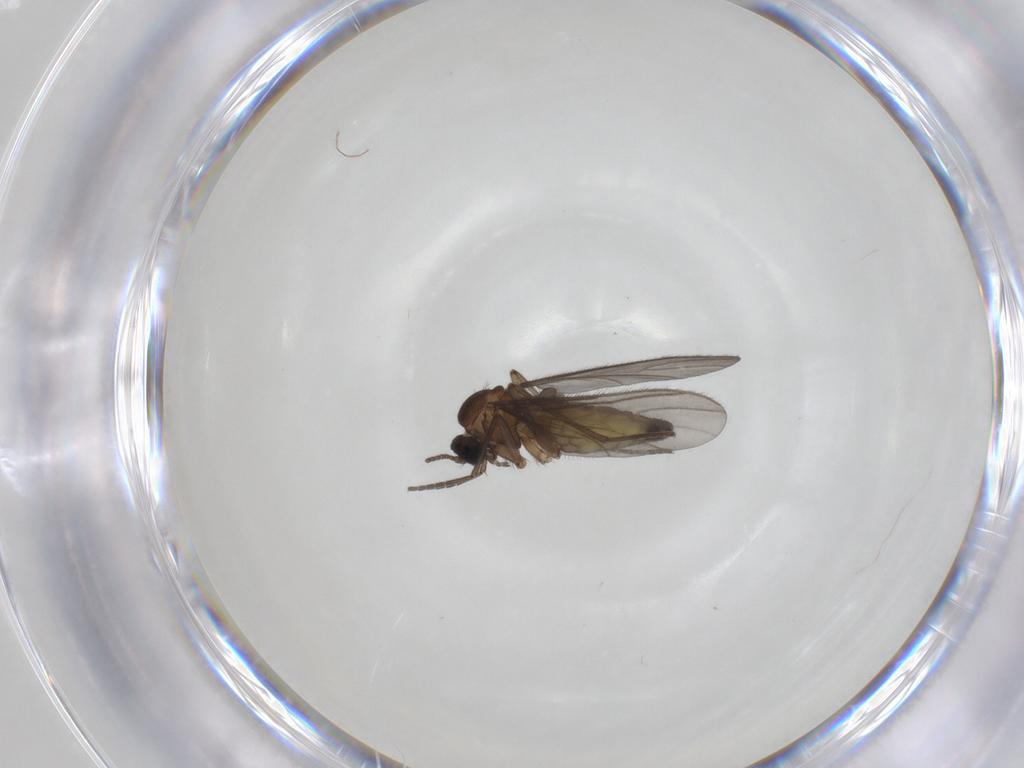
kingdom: Animalia
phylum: Arthropoda
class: Insecta
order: Diptera
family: Sciaridae
